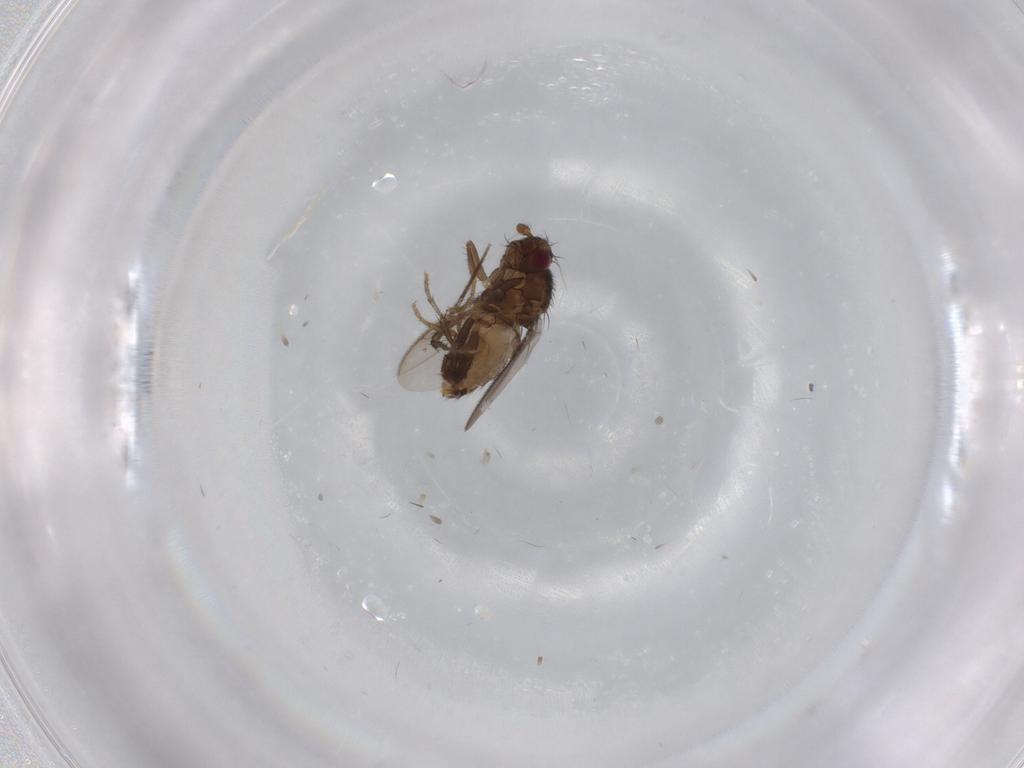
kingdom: Animalia
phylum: Arthropoda
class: Insecta
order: Diptera
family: Sphaeroceridae
